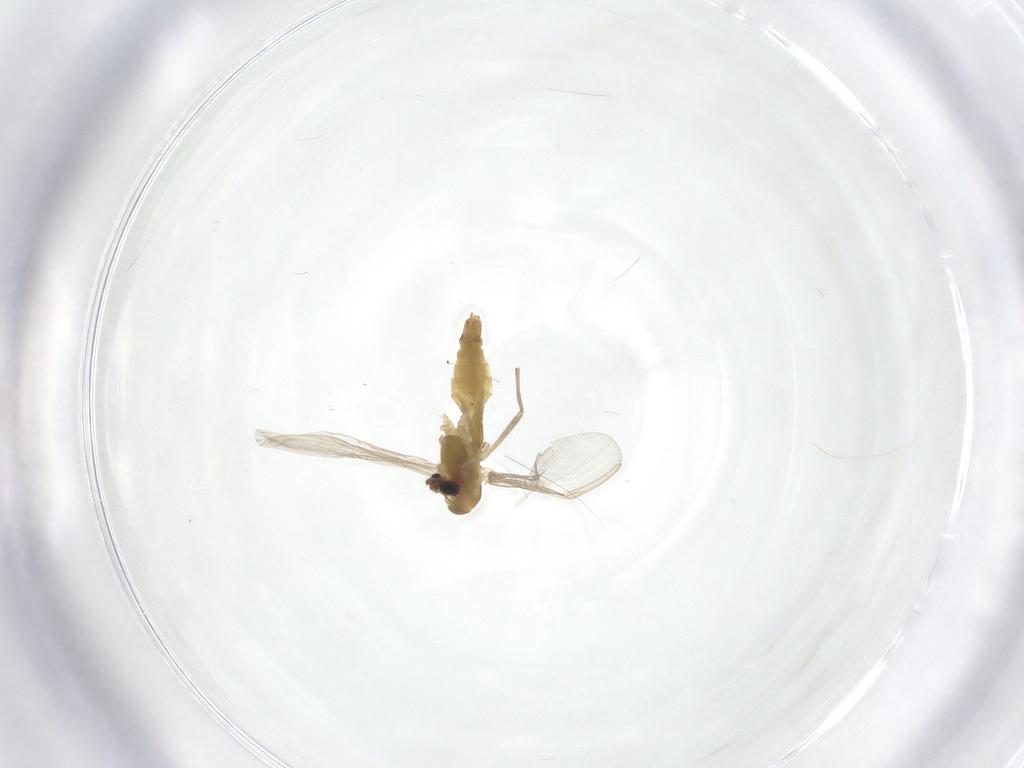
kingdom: Animalia
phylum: Arthropoda
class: Insecta
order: Diptera
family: Chironomidae
